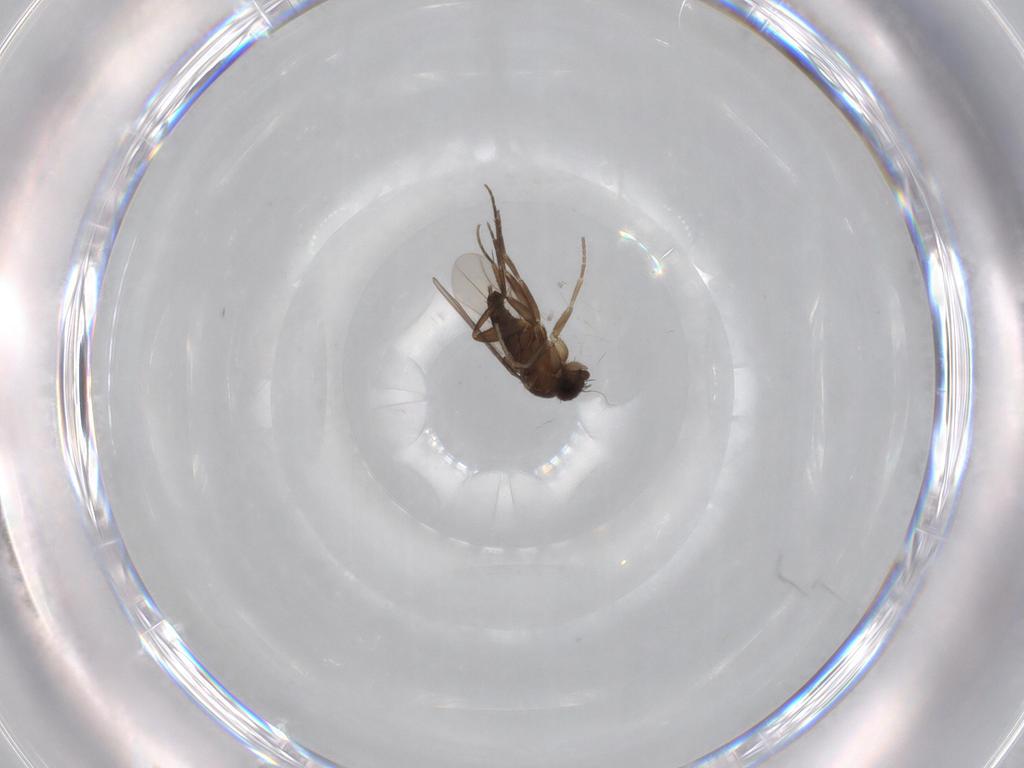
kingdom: Animalia
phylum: Arthropoda
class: Insecta
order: Diptera
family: Phoridae
